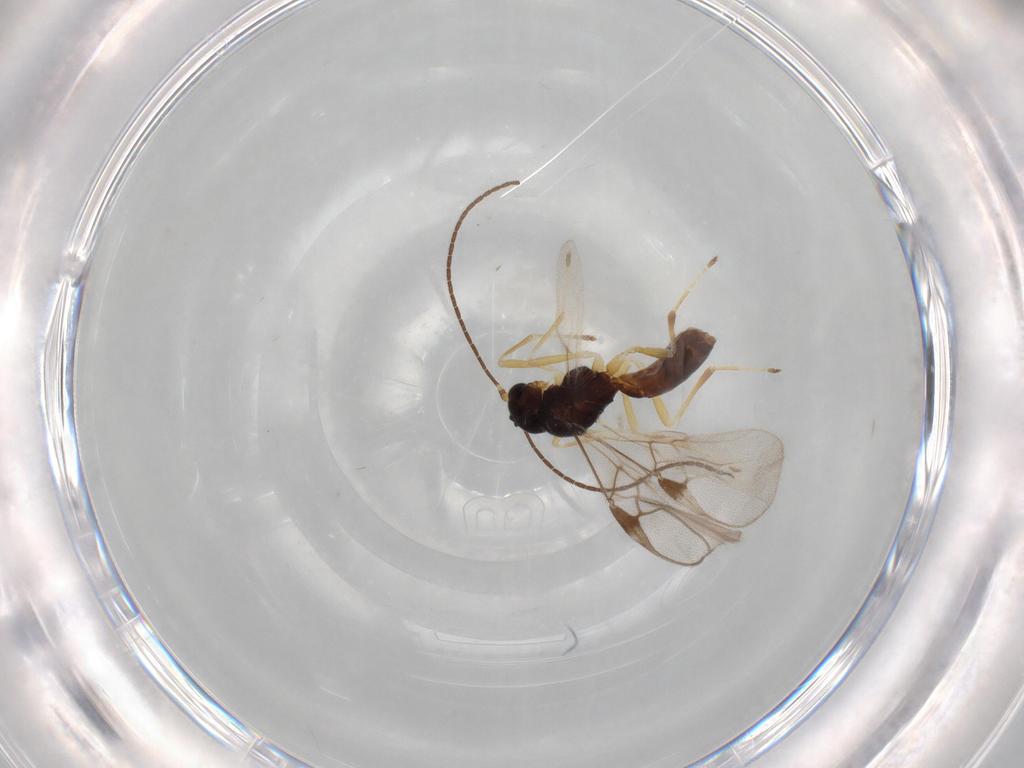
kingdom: Animalia
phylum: Arthropoda
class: Insecta
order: Hymenoptera
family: Braconidae
